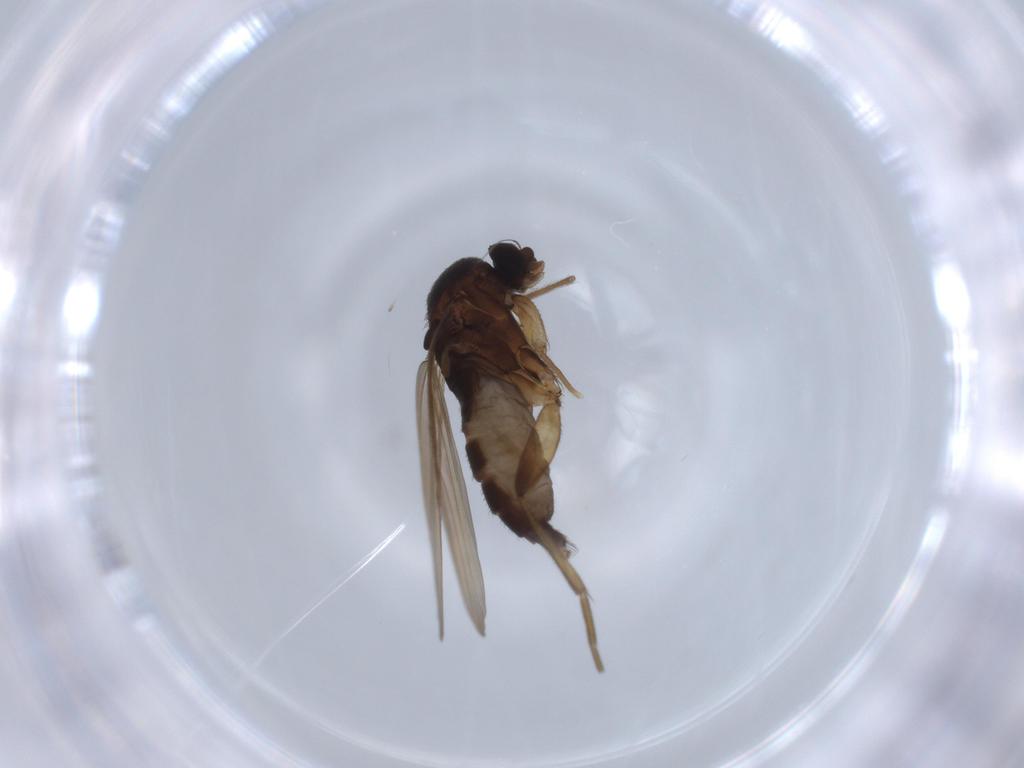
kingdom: Animalia
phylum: Arthropoda
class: Insecta
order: Diptera
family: Phoridae
